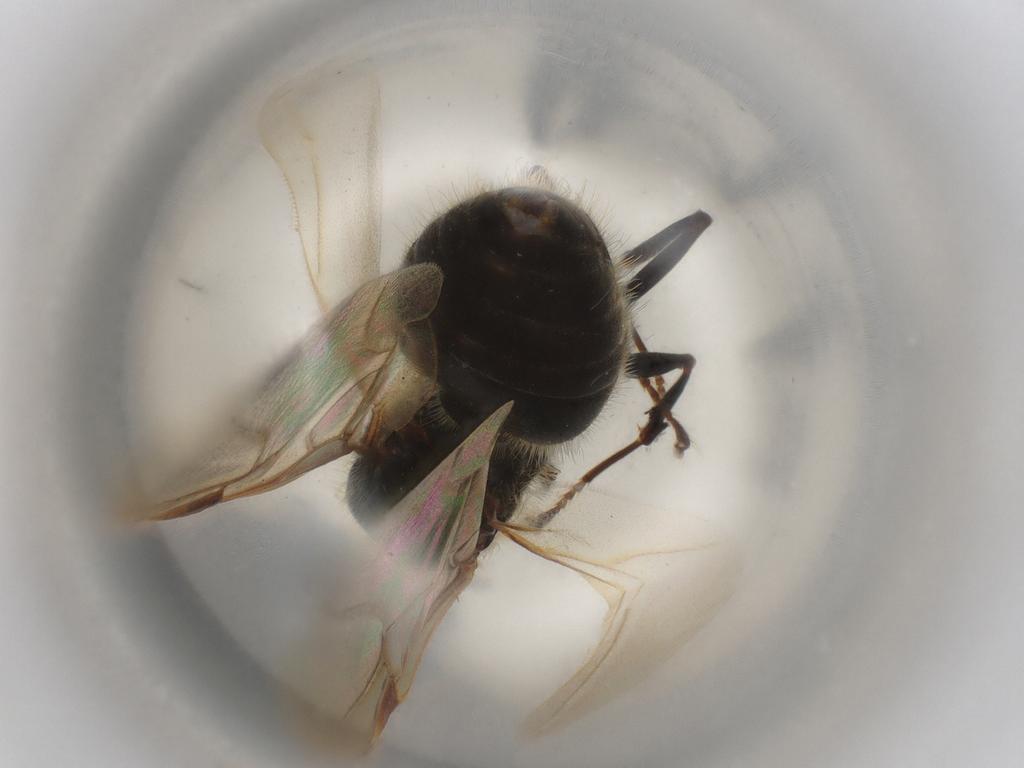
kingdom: Animalia
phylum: Arthropoda
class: Insecta
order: Hymenoptera
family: Formicidae
